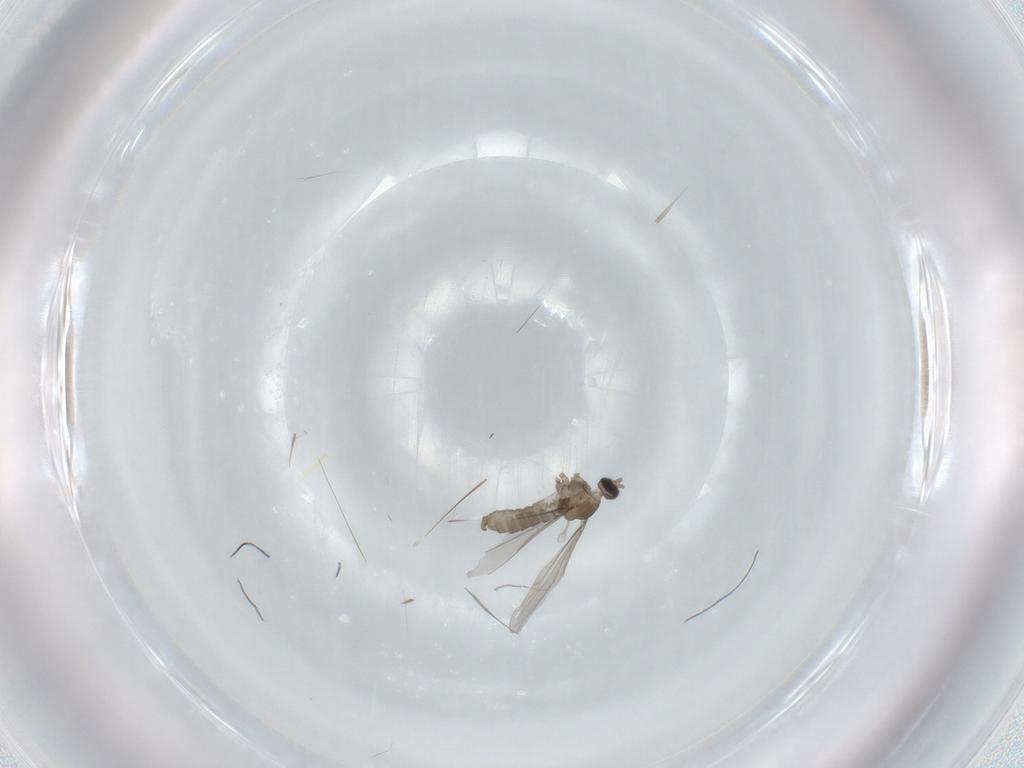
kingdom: Animalia
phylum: Arthropoda
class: Insecta
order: Diptera
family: Cecidomyiidae
